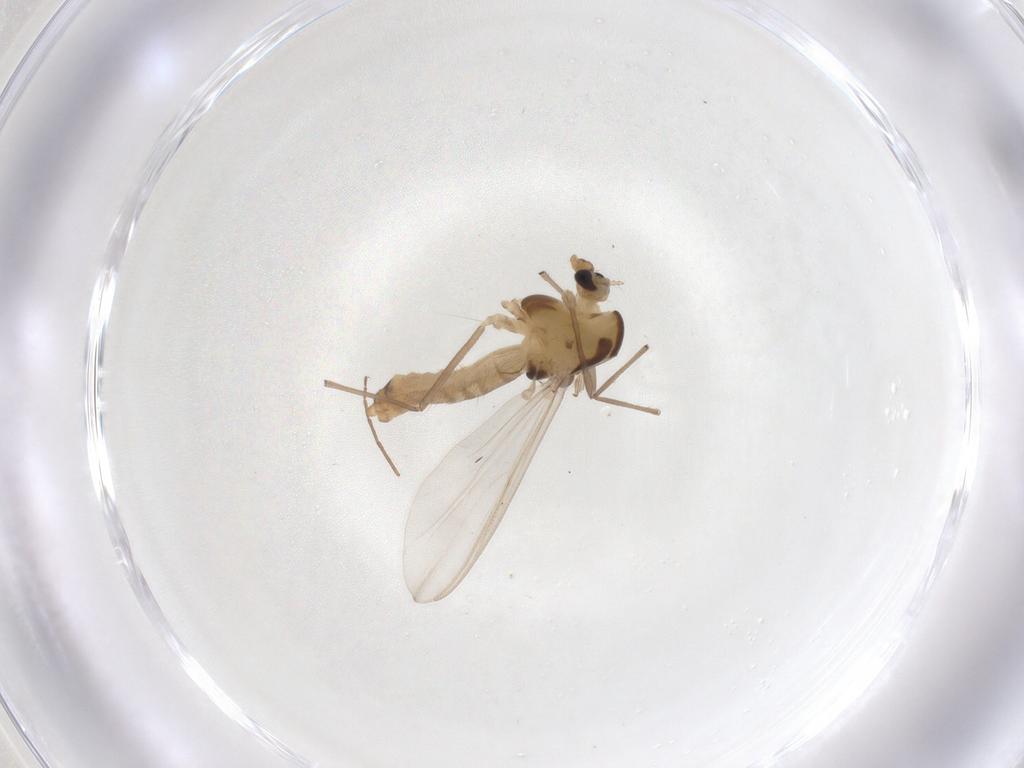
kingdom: Animalia
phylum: Arthropoda
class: Insecta
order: Diptera
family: Chironomidae
